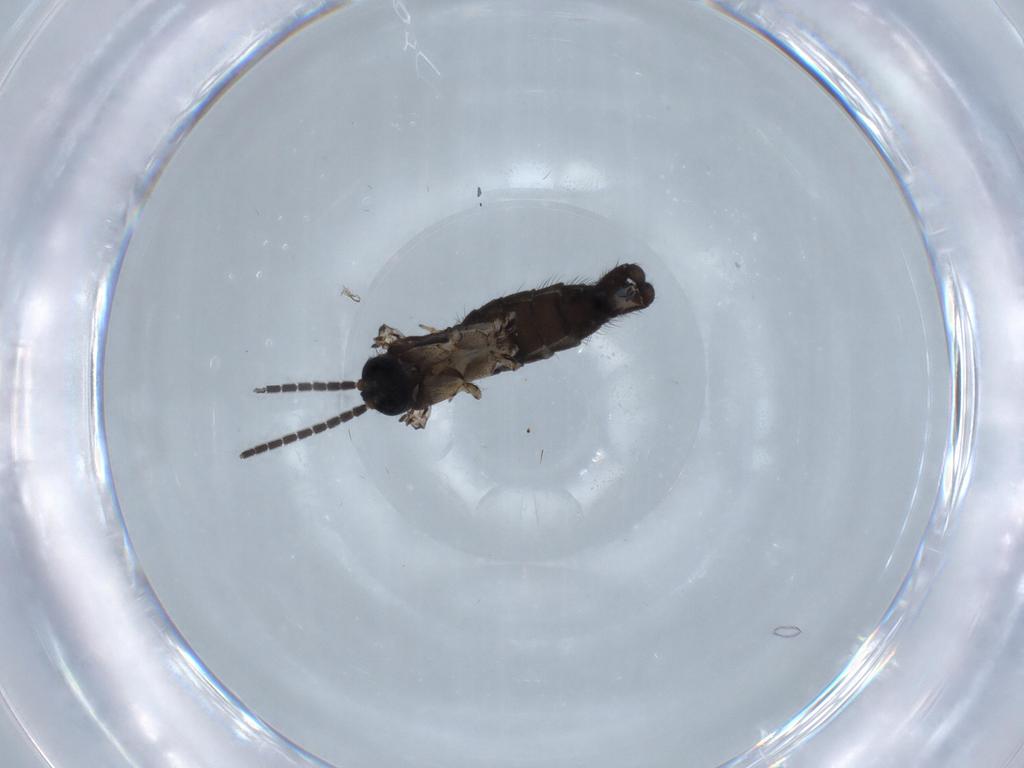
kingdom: Animalia
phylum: Arthropoda
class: Insecta
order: Diptera
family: Sciaridae
